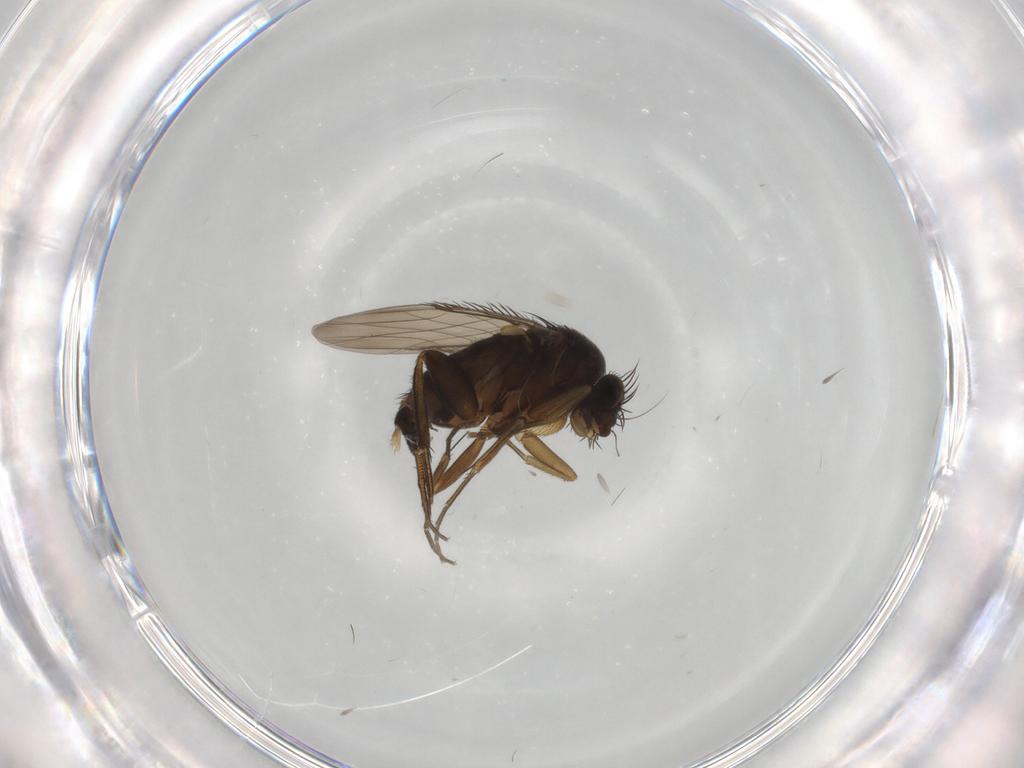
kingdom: Animalia
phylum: Arthropoda
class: Insecta
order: Diptera
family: Phoridae
